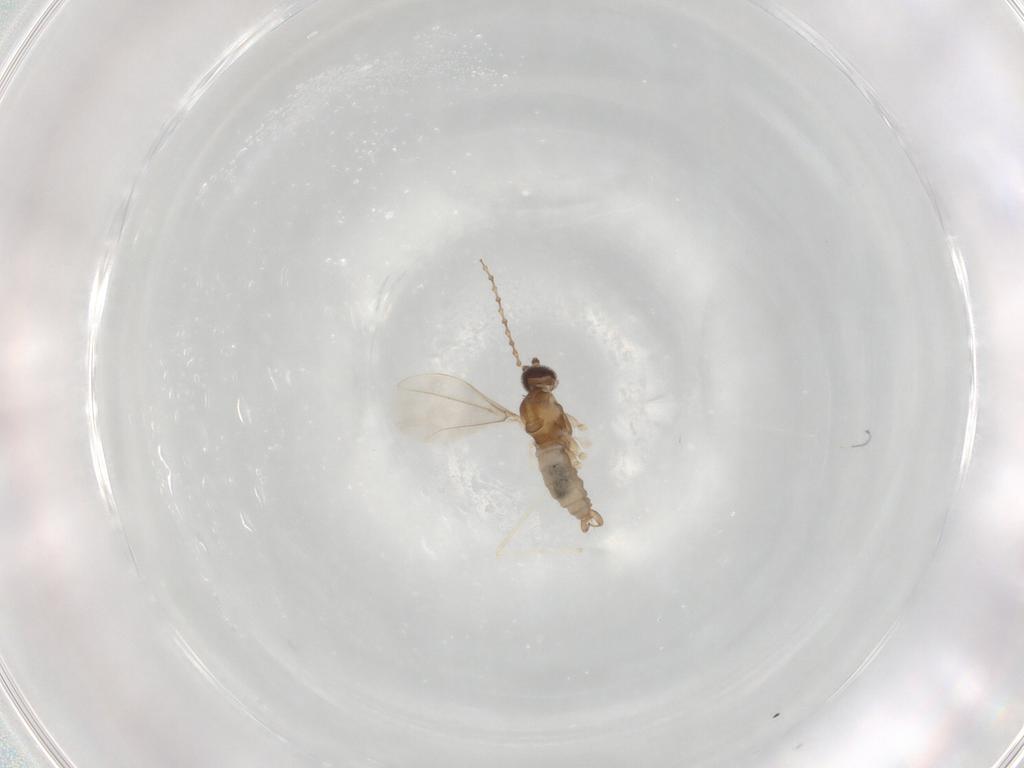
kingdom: Animalia
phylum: Arthropoda
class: Insecta
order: Diptera
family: Cecidomyiidae
